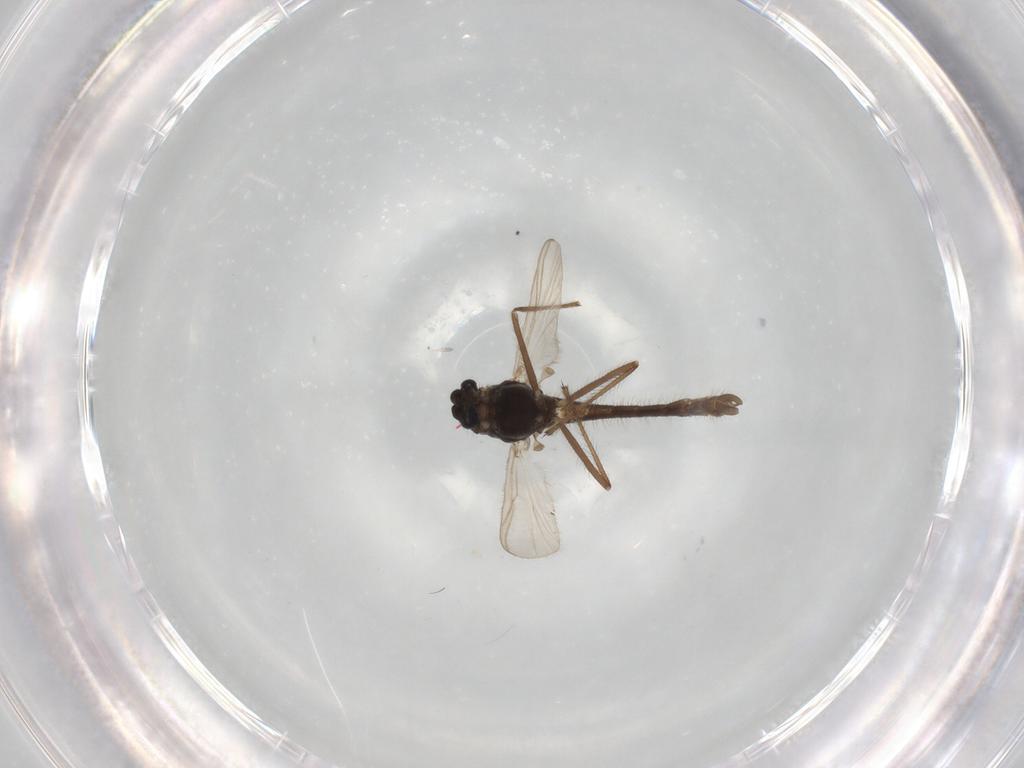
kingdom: Animalia
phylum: Arthropoda
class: Insecta
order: Diptera
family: Chironomidae
